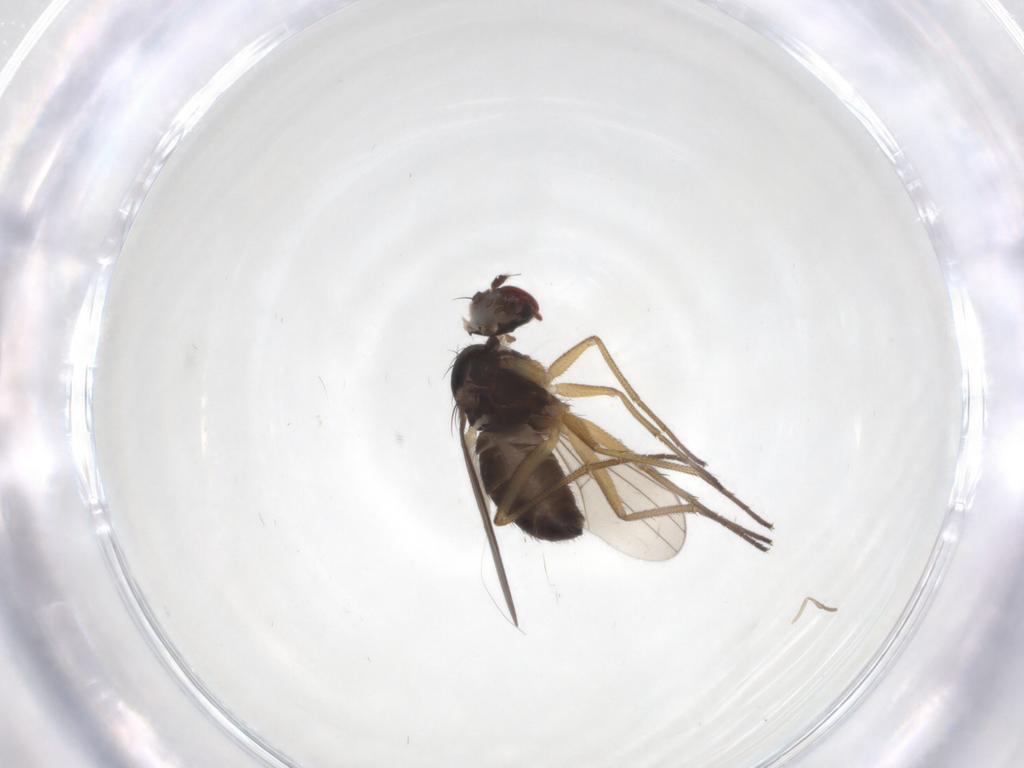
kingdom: Animalia
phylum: Arthropoda
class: Insecta
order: Diptera
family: Dolichopodidae
